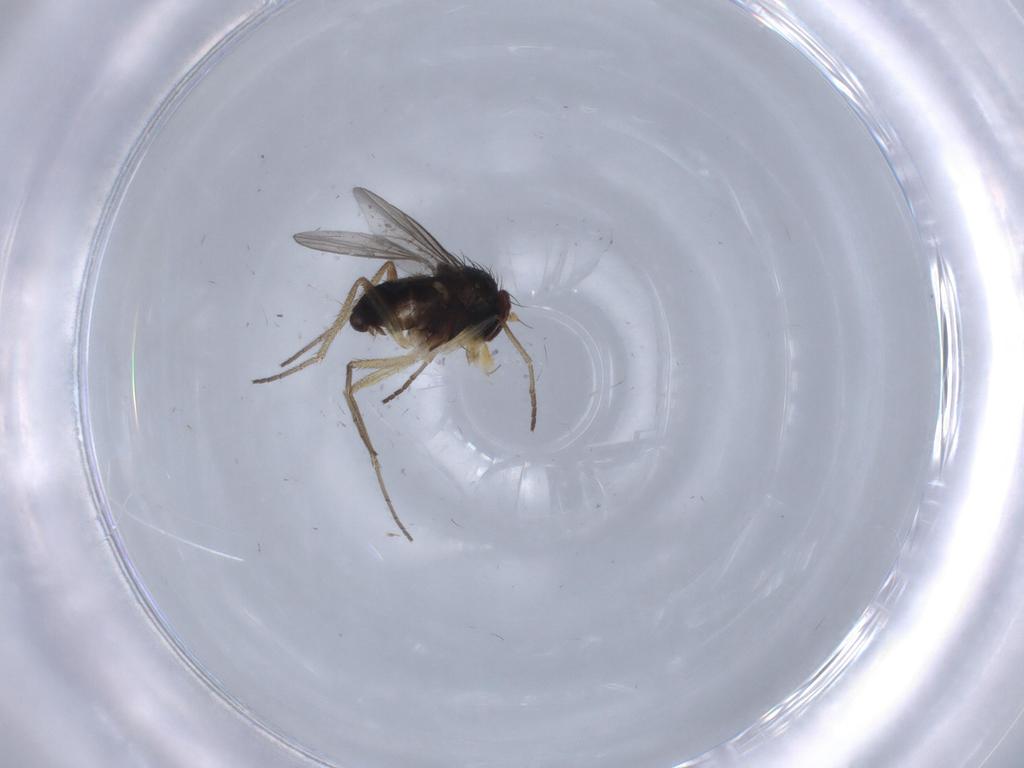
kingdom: Animalia
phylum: Arthropoda
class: Insecta
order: Diptera
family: Dolichopodidae
